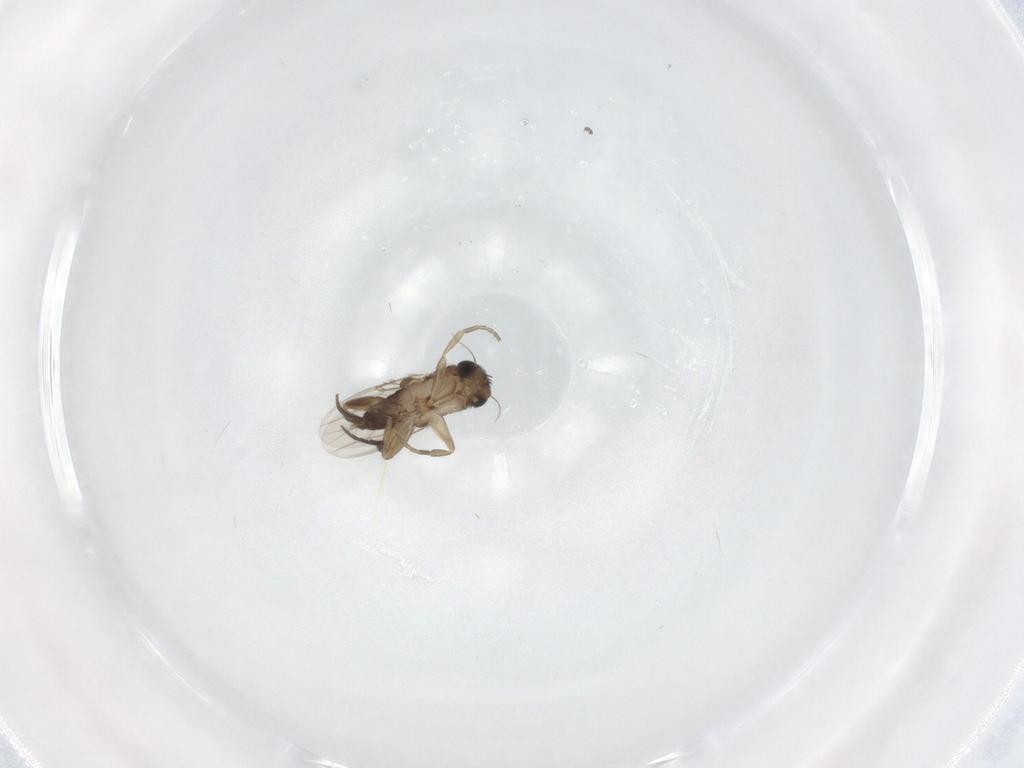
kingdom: Animalia
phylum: Arthropoda
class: Insecta
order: Diptera
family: Phoridae
